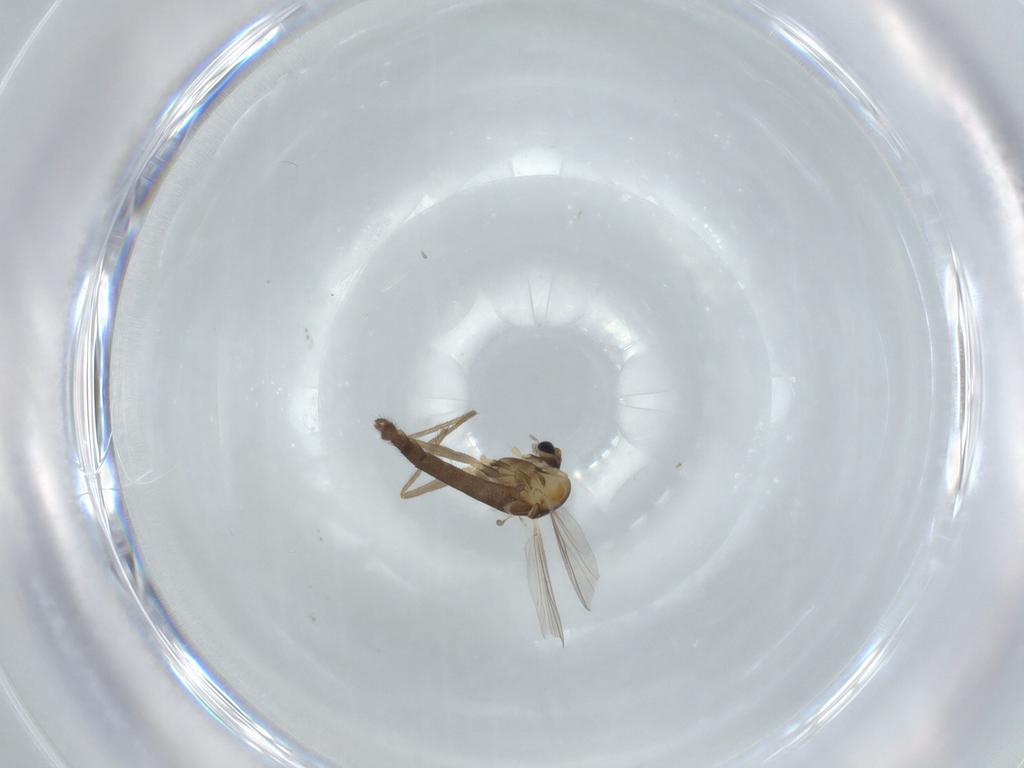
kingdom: Animalia
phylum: Arthropoda
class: Insecta
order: Diptera
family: Chironomidae
